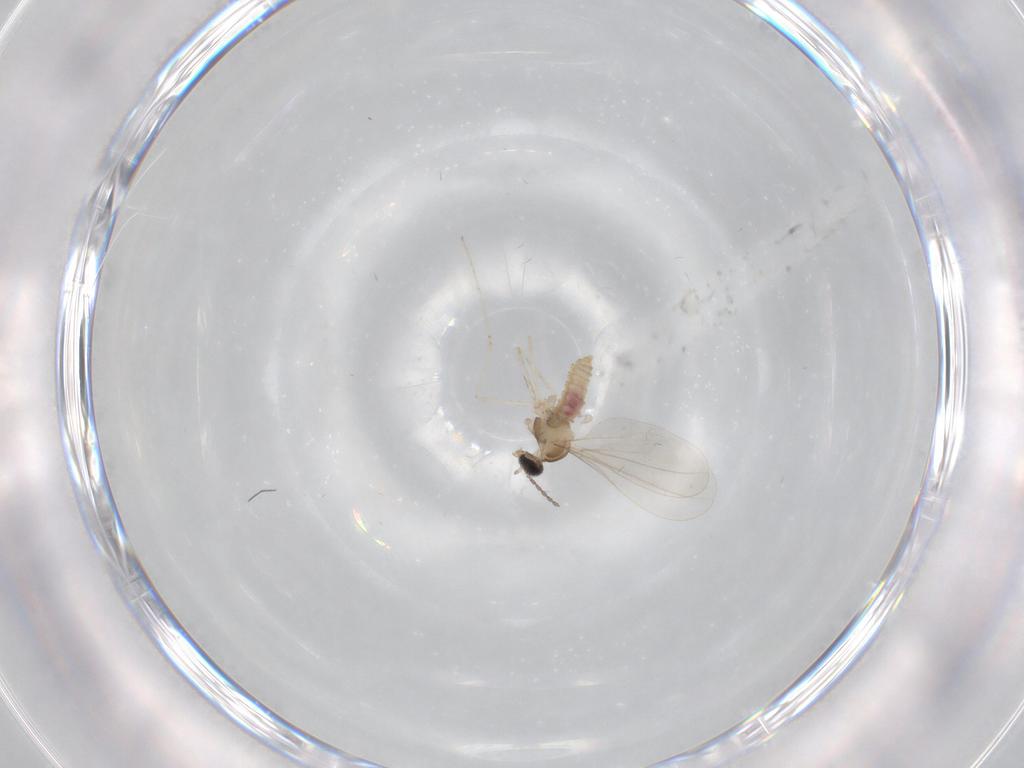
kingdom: Animalia
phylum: Arthropoda
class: Insecta
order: Diptera
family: Cecidomyiidae
